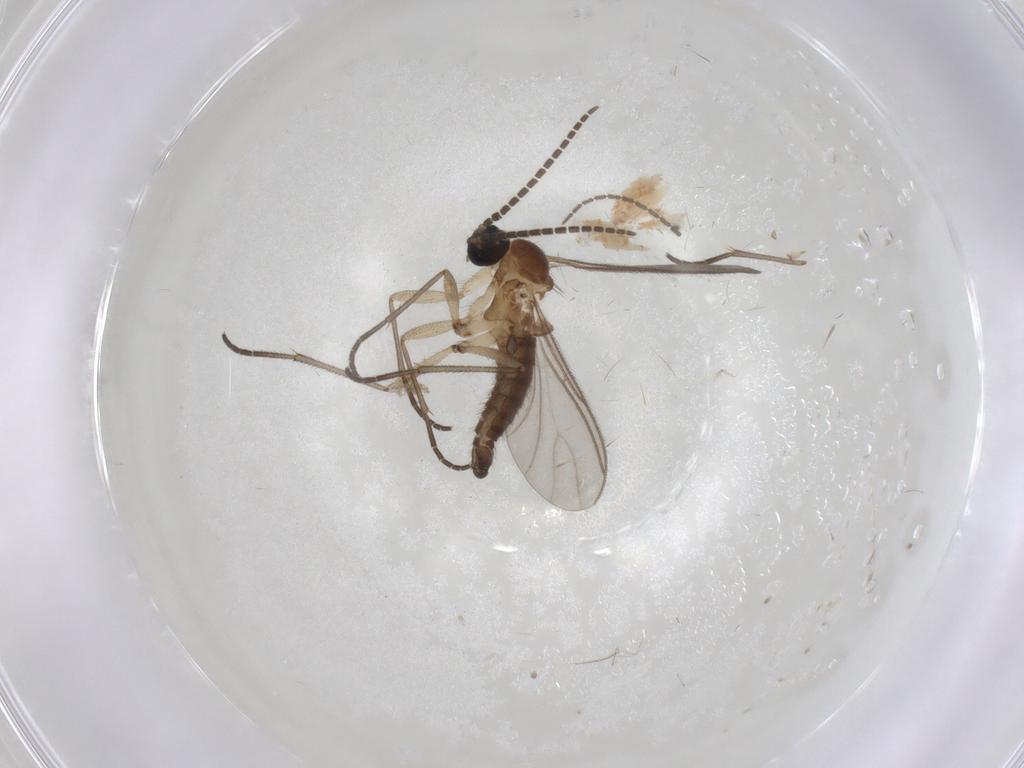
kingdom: Animalia
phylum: Arthropoda
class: Insecta
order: Diptera
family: Sciaridae
